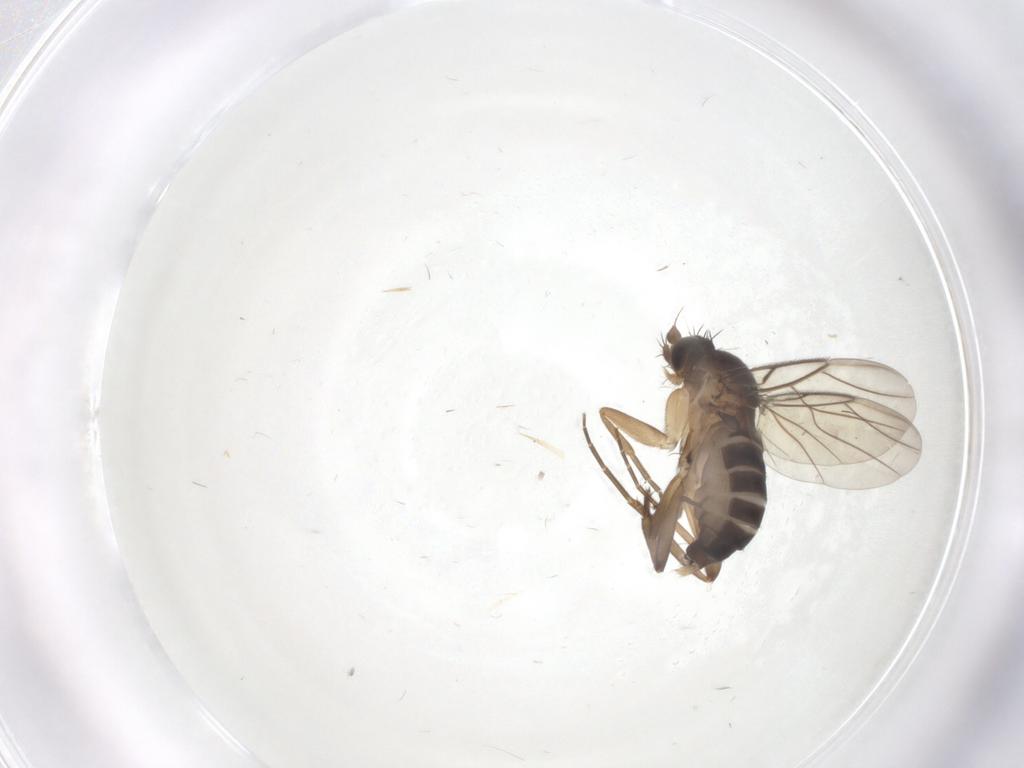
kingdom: Animalia
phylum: Arthropoda
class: Insecta
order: Diptera
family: Phoridae
